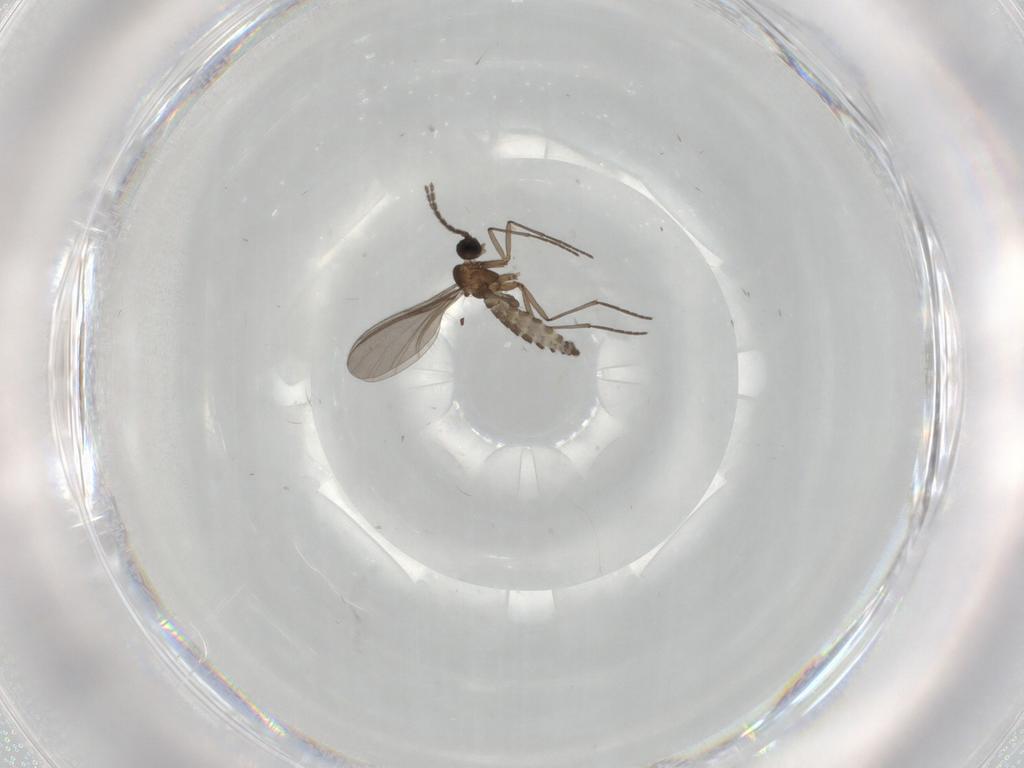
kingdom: Animalia
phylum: Arthropoda
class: Insecta
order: Diptera
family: Sciaridae
